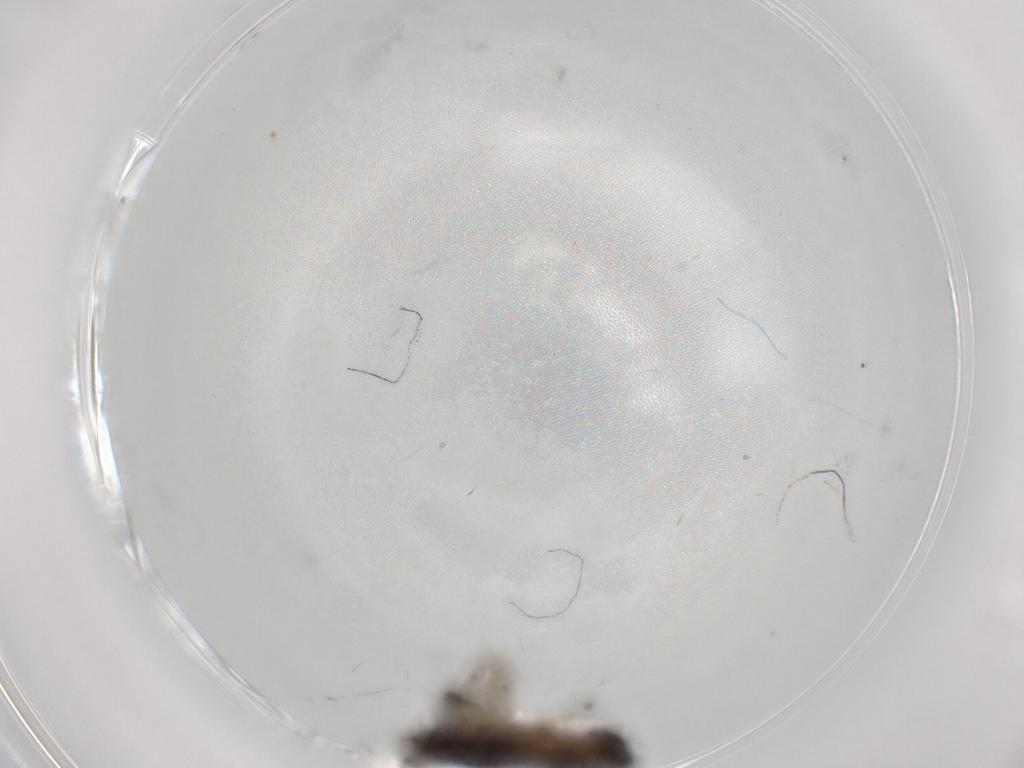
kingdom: Animalia
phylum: Arthropoda
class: Insecta
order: Diptera
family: Phoridae
